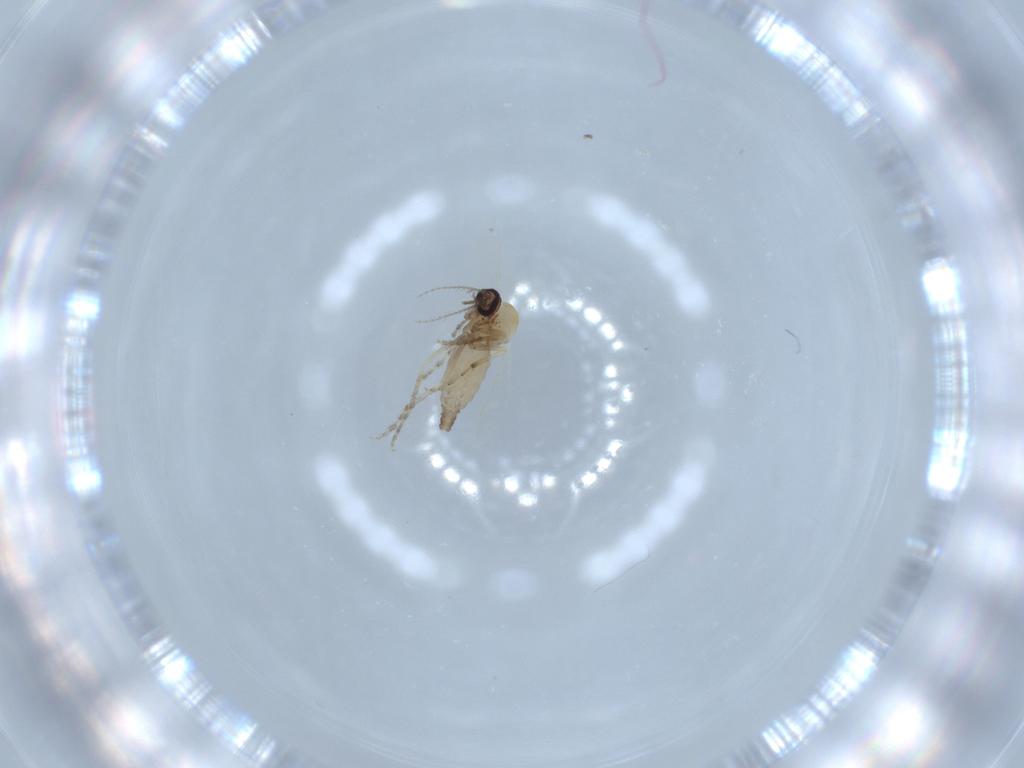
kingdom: Animalia
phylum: Arthropoda
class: Insecta
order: Diptera
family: Ceratopogonidae
